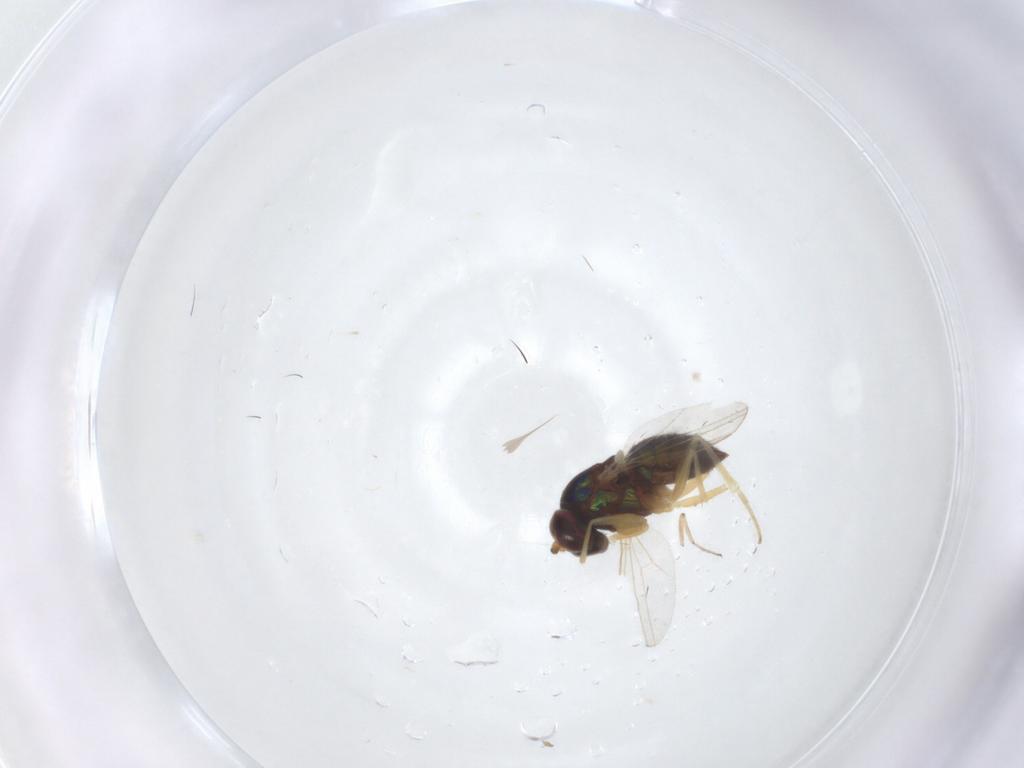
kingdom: Animalia
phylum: Arthropoda
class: Insecta
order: Diptera
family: Dolichopodidae
